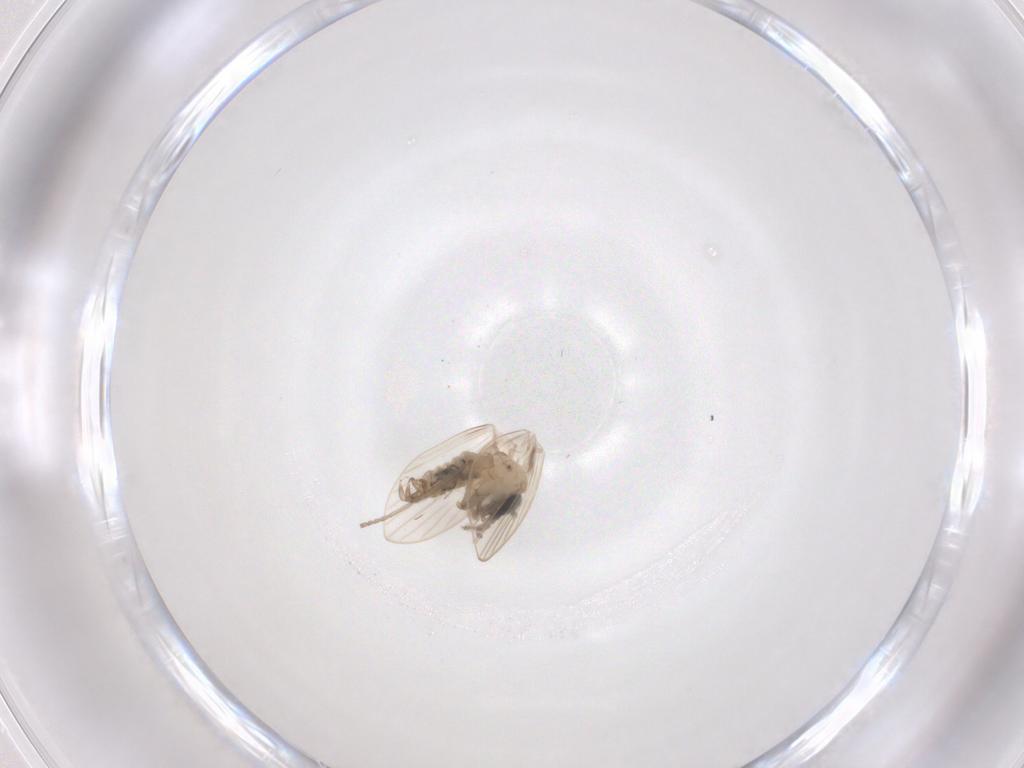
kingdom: Animalia
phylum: Arthropoda
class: Insecta
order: Diptera
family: Psychodidae
